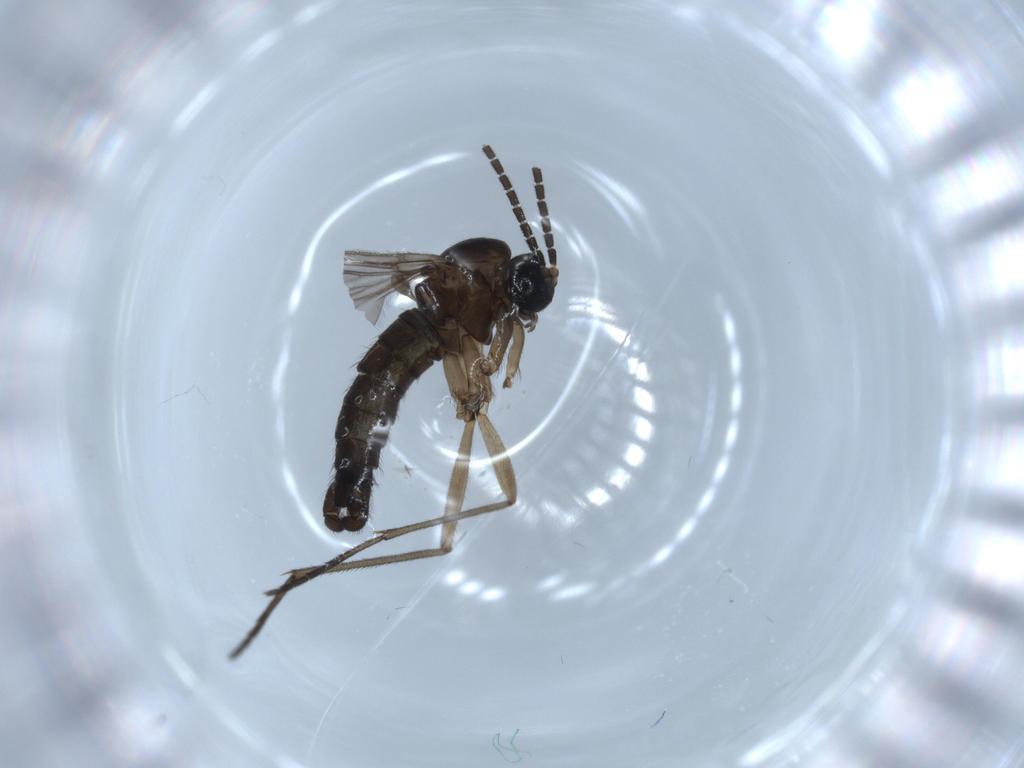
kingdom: Animalia
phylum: Arthropoda
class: Insecta
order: Diptera
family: Sciaridae
